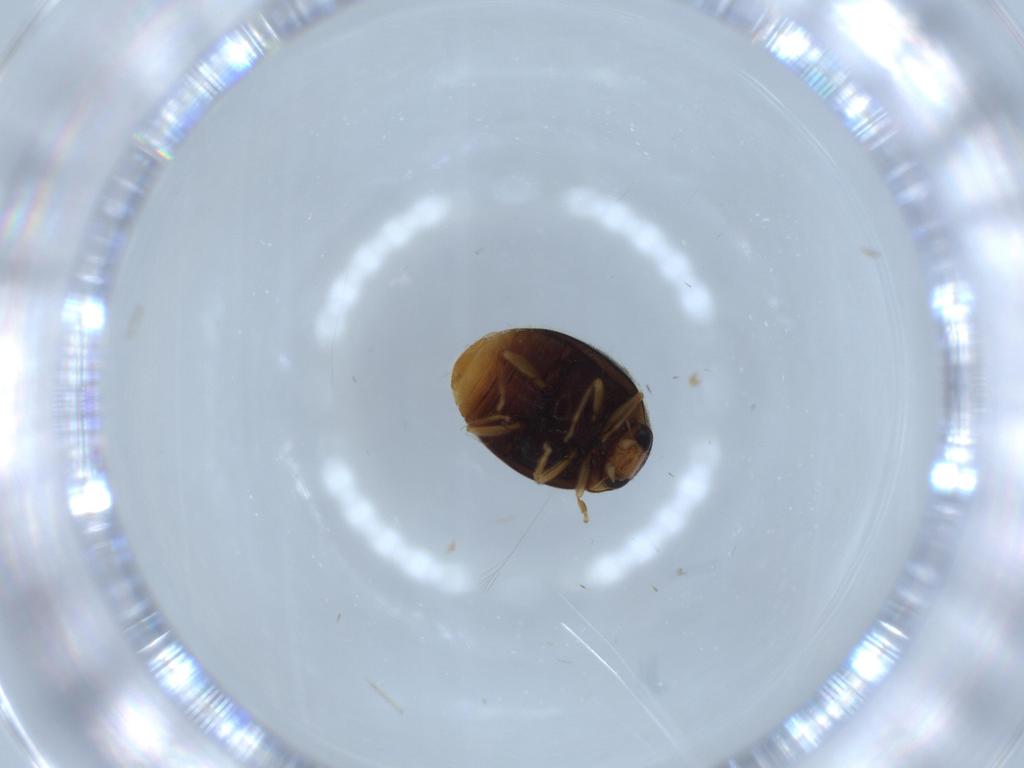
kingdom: Animalia
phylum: Arthropoda
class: Insecta
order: Coleoptera
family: Chrysomelidae
